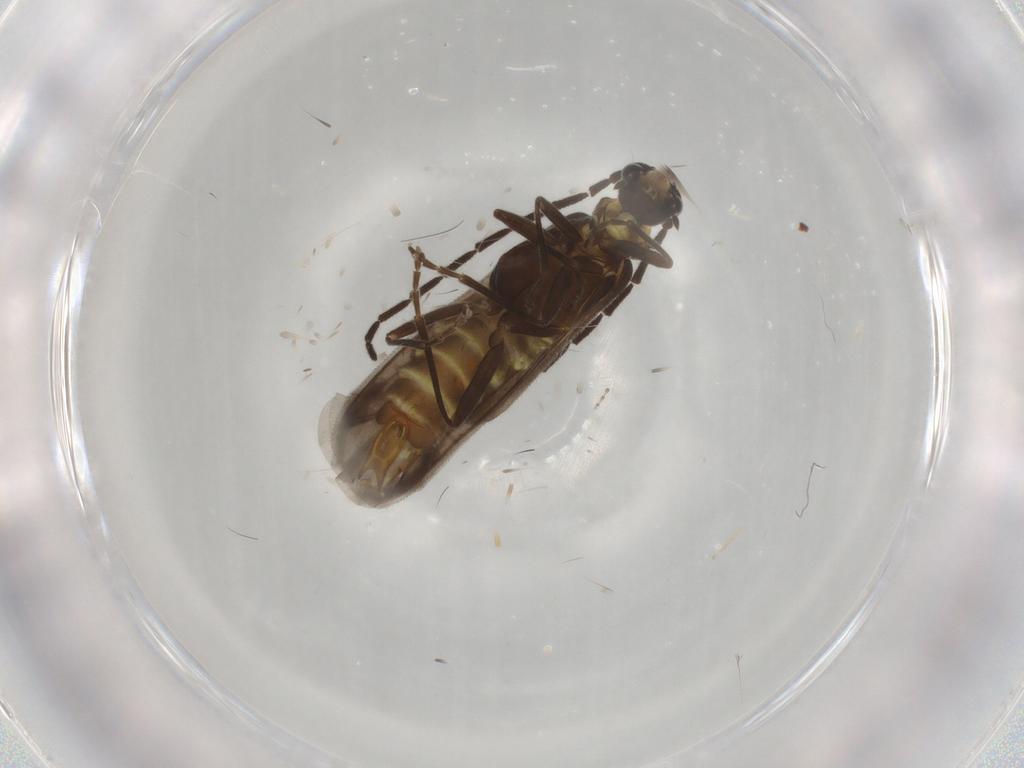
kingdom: Animalia
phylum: Arthropoda
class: Insecta
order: Coleoptera
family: Cantharidae
